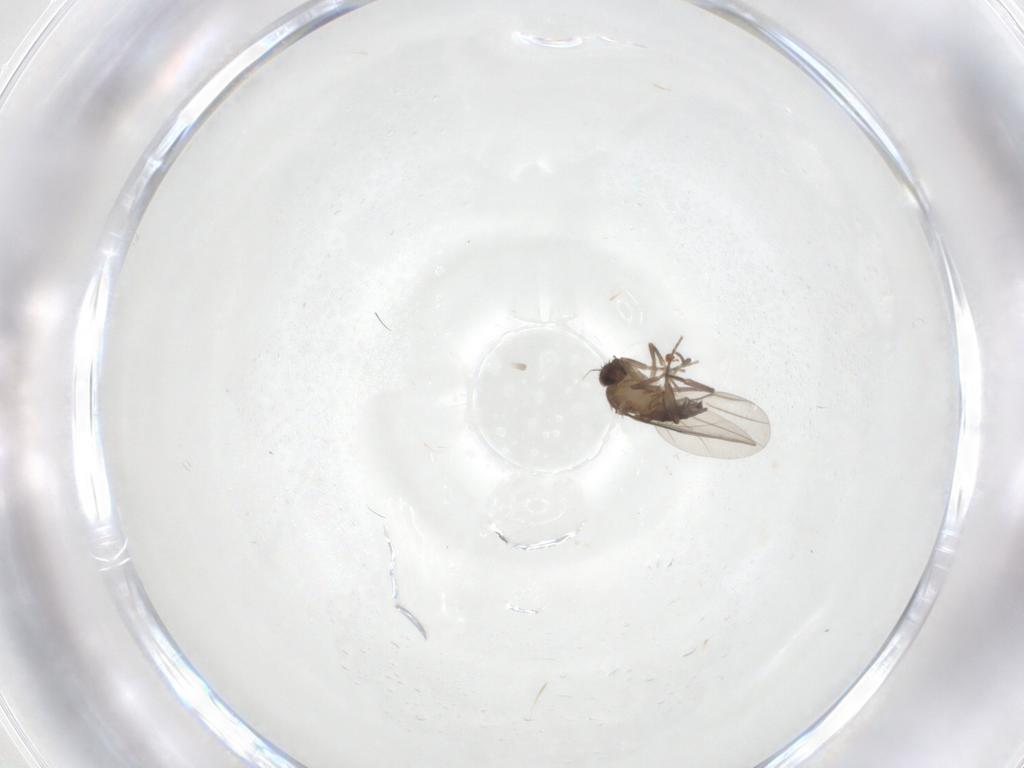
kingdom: Animalia
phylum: Arthropoda
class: Insecta
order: Diptera
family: Phoridae
